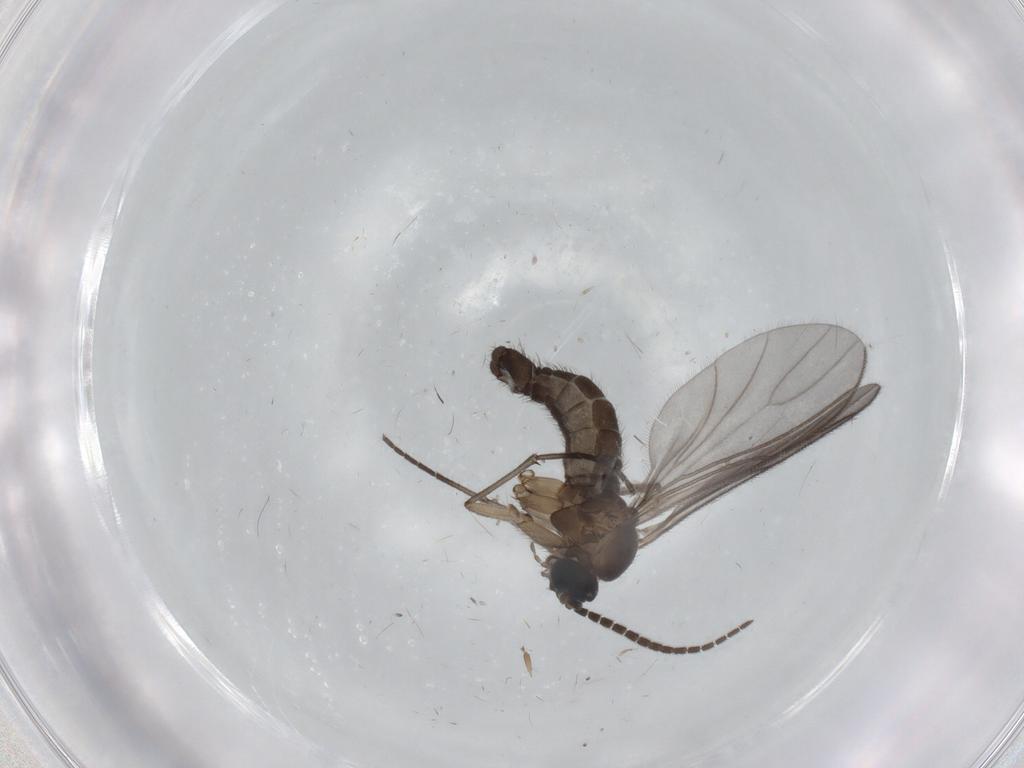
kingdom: Animalia
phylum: Arthropoda
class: Insecta
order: Diptera
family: Sciaridae
